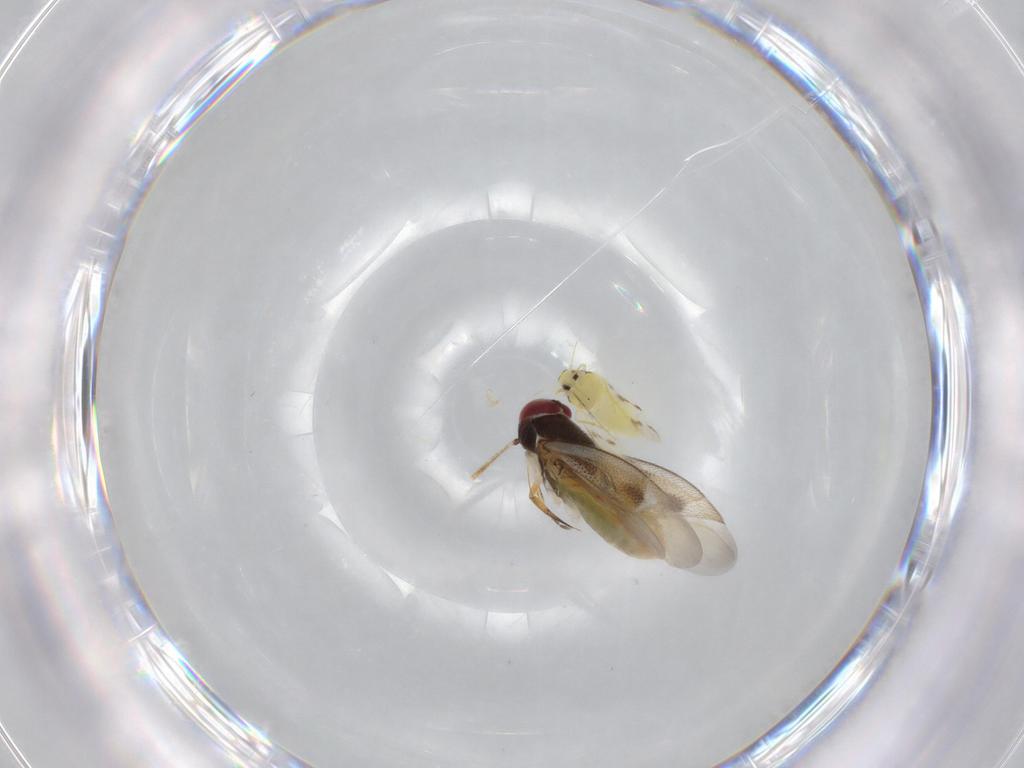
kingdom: Animalia
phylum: Arthropoda
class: Insecta
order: Hemiptera
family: Aleyrodidae
